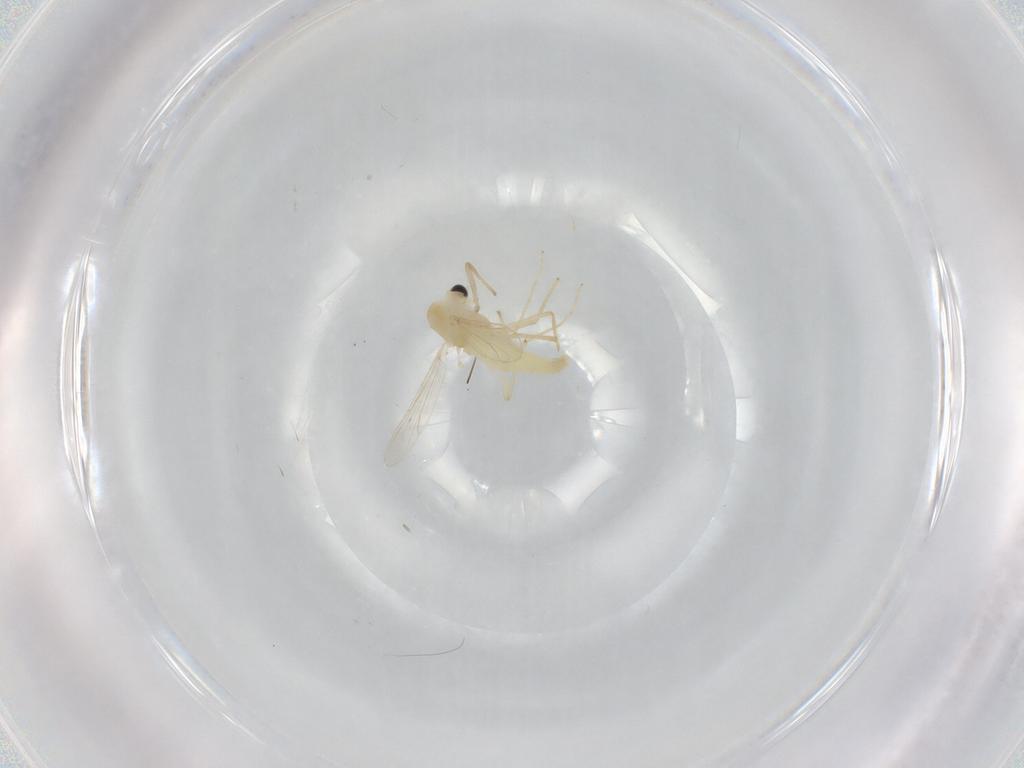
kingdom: Animalia
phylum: Arthropoda
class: Insecta
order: Diptera
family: Chironomidae
